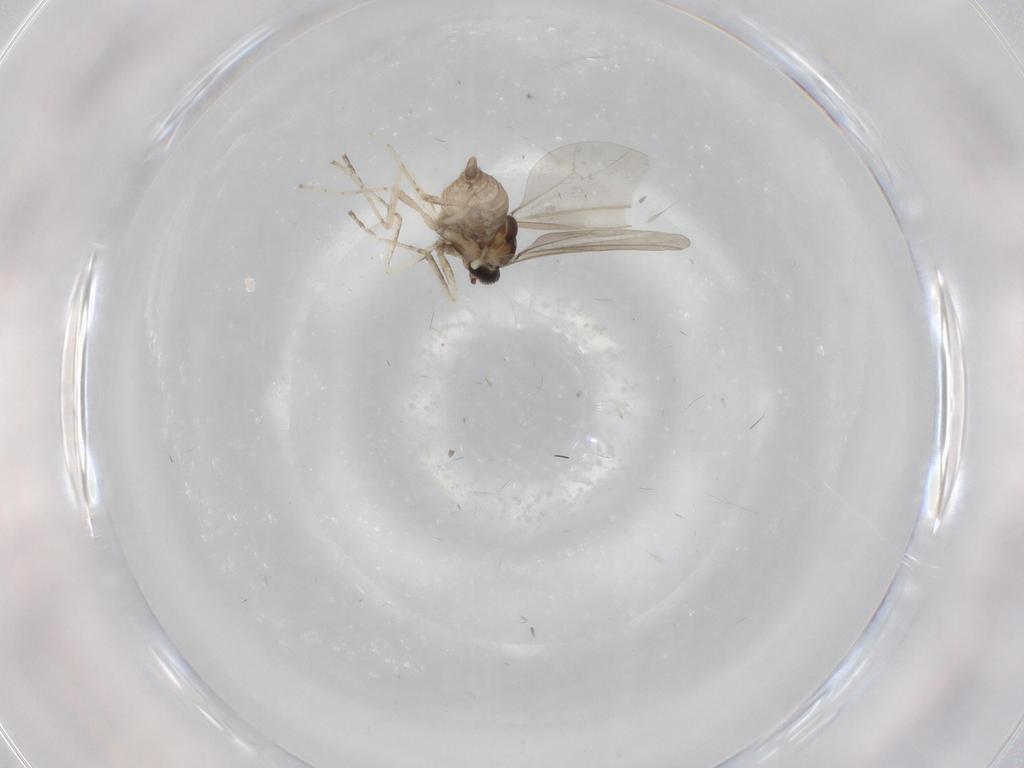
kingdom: Animalia
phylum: Arthropoda
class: Insecta
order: Diptera
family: Cecidomyiidae
